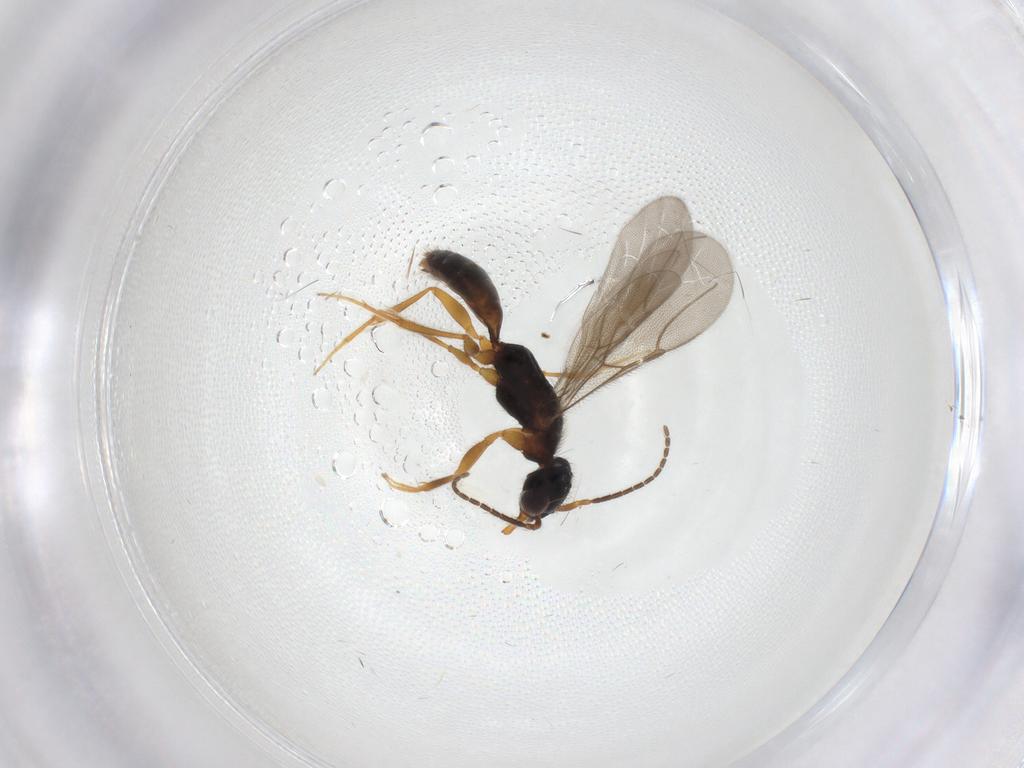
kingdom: Animalia
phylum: Arthropoda
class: Insecta
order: Hymenoptera
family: Bethylidae
